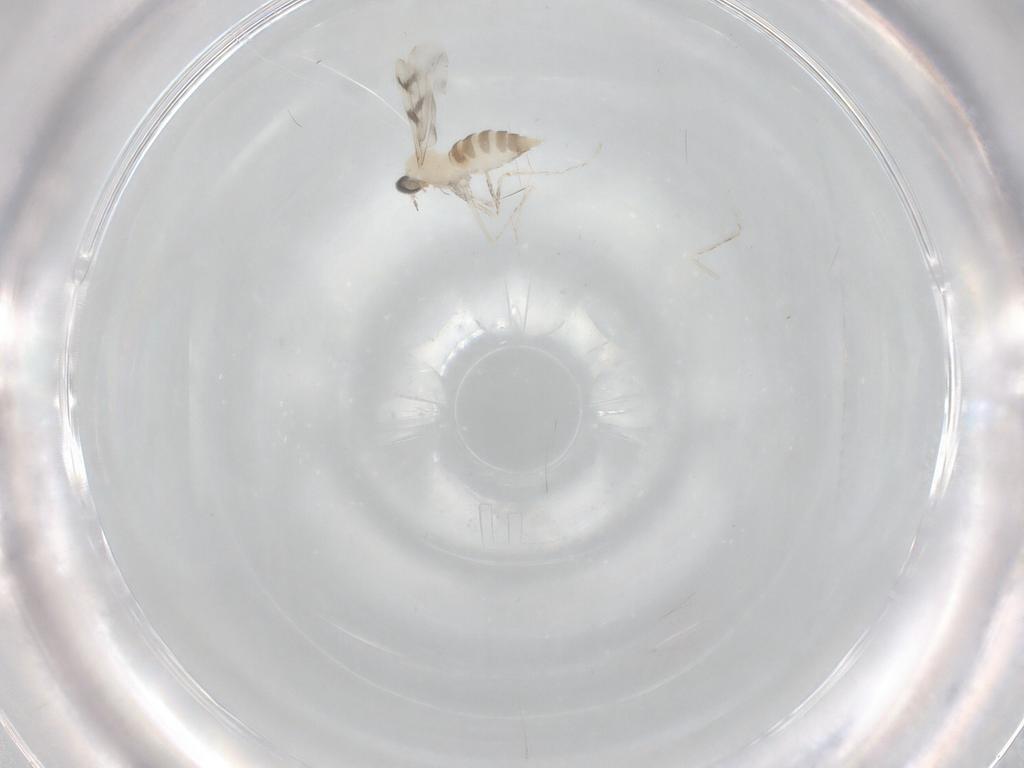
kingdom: Animalia
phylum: Arthropoda
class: Insecta
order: Diptera
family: Cecidomyiidae
